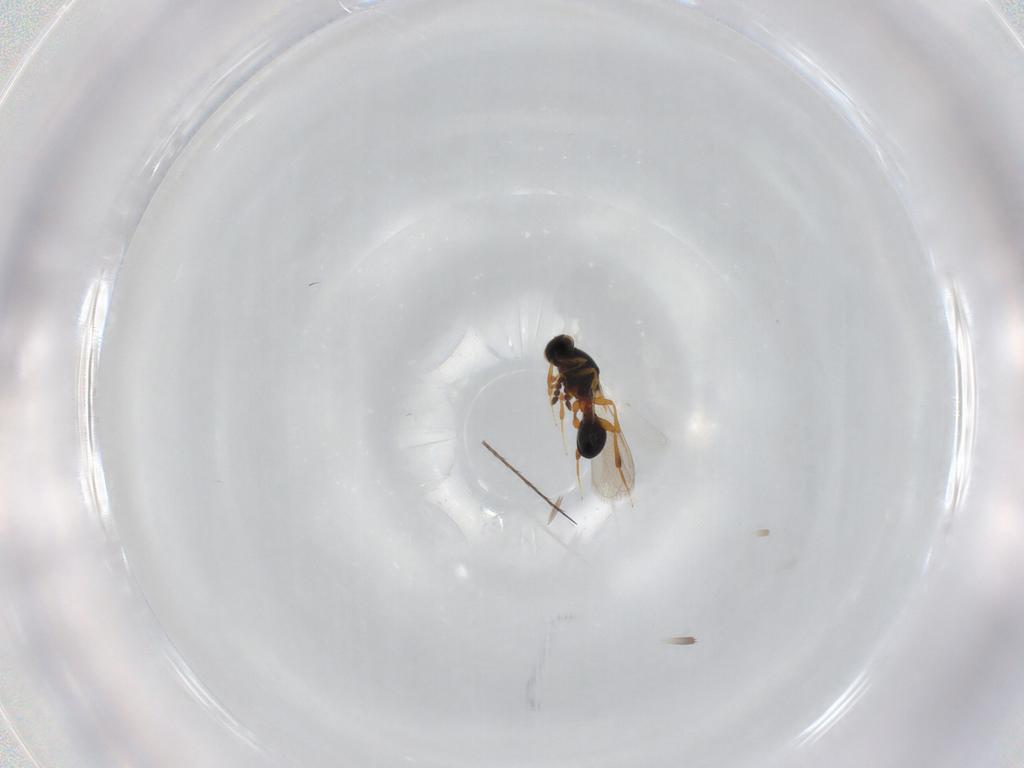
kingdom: Animalia
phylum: Arthropoda
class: Insecta
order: Hymenoptera
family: Platygastridae
